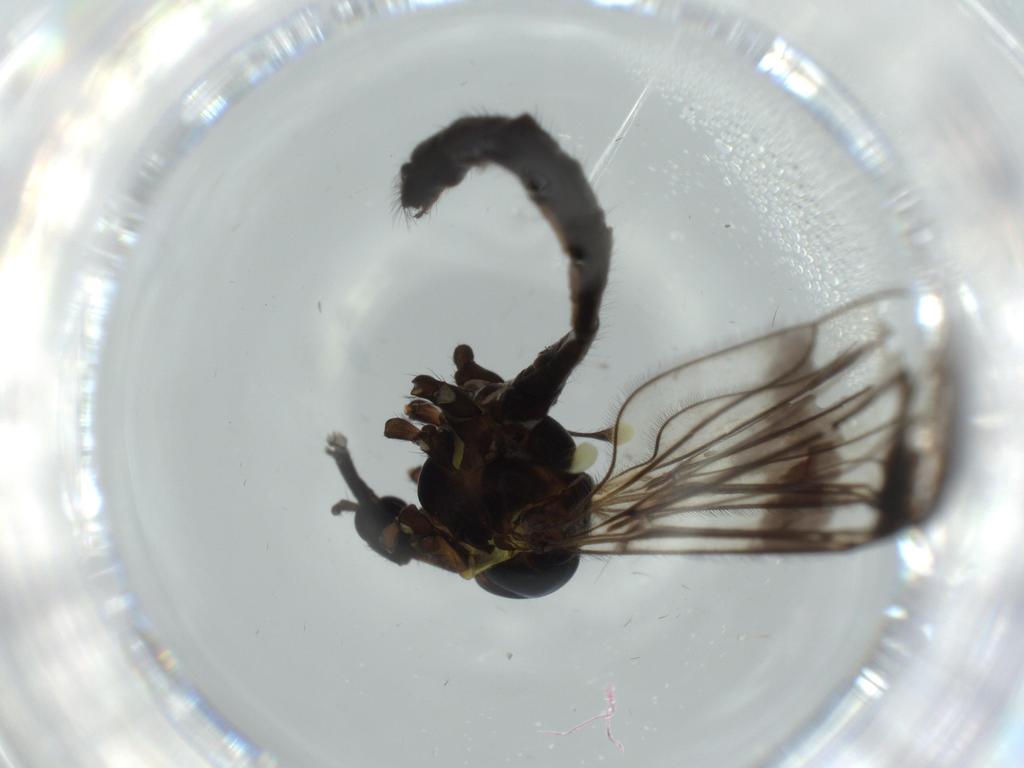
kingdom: Animalia
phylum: Arthropoda
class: Insecta
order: Diptera
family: Limoniidae
